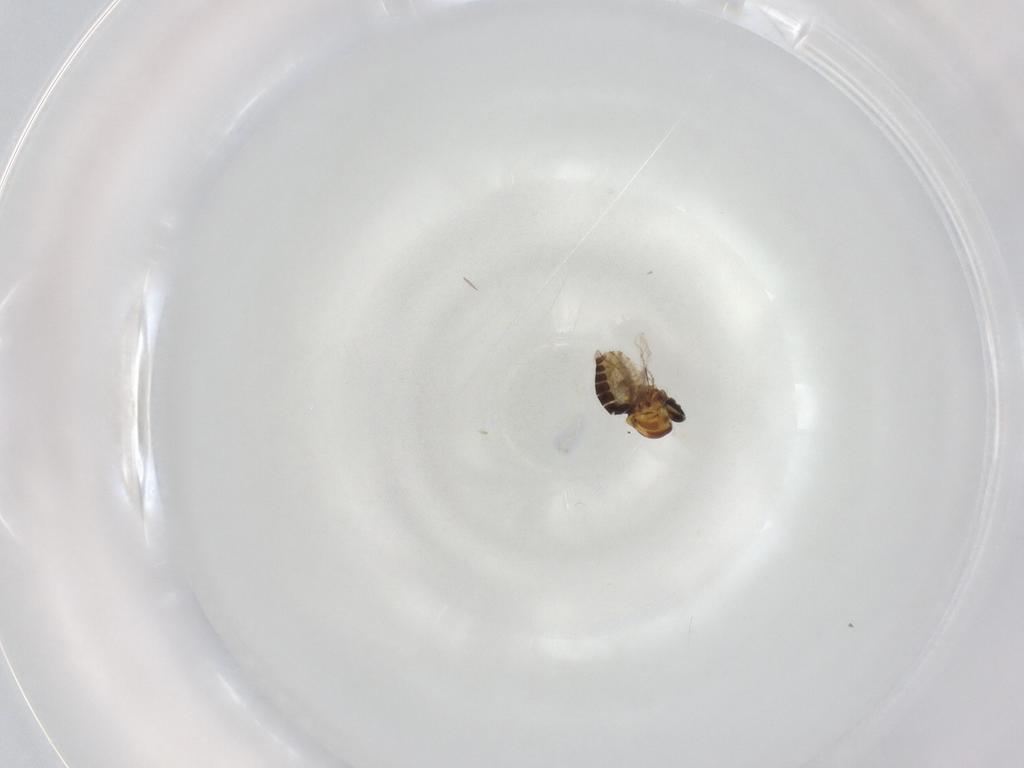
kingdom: Animalia
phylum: Arthropoda
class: Insecta
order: Diptera
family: Ceratopogonidae
